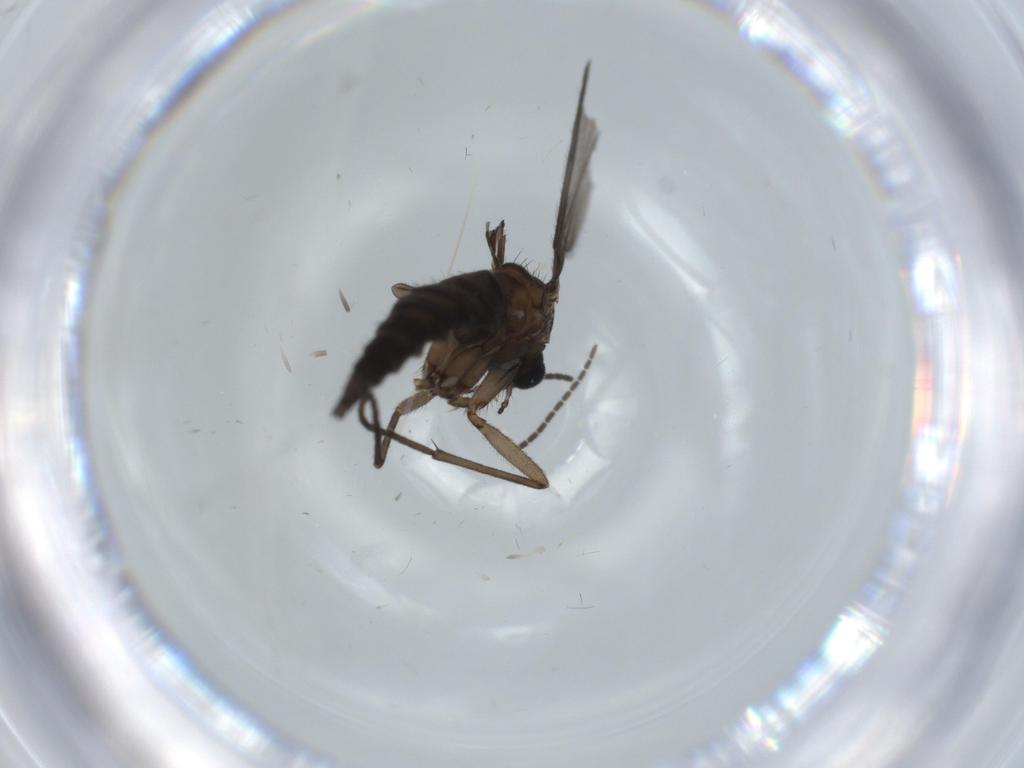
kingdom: Animalia
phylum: Arthropoda
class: Insecta
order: Diptera
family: Sciaridae
